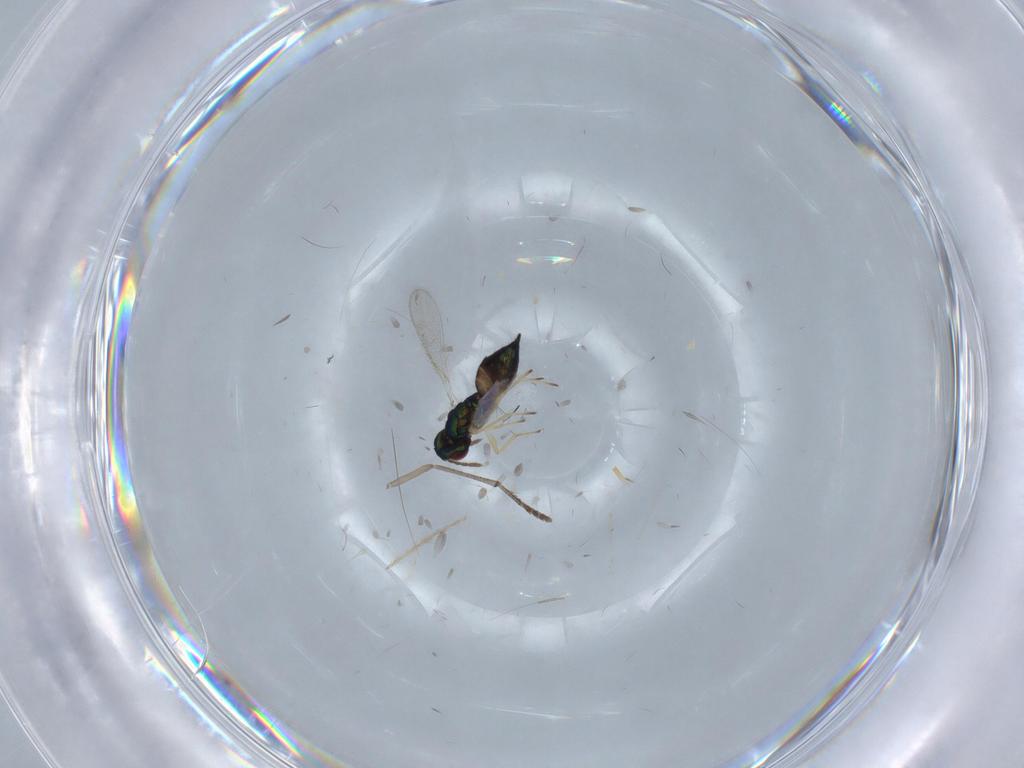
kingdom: Animalia
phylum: Arthropoda
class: Insecta
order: Hymenoptera
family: Eulophidae
